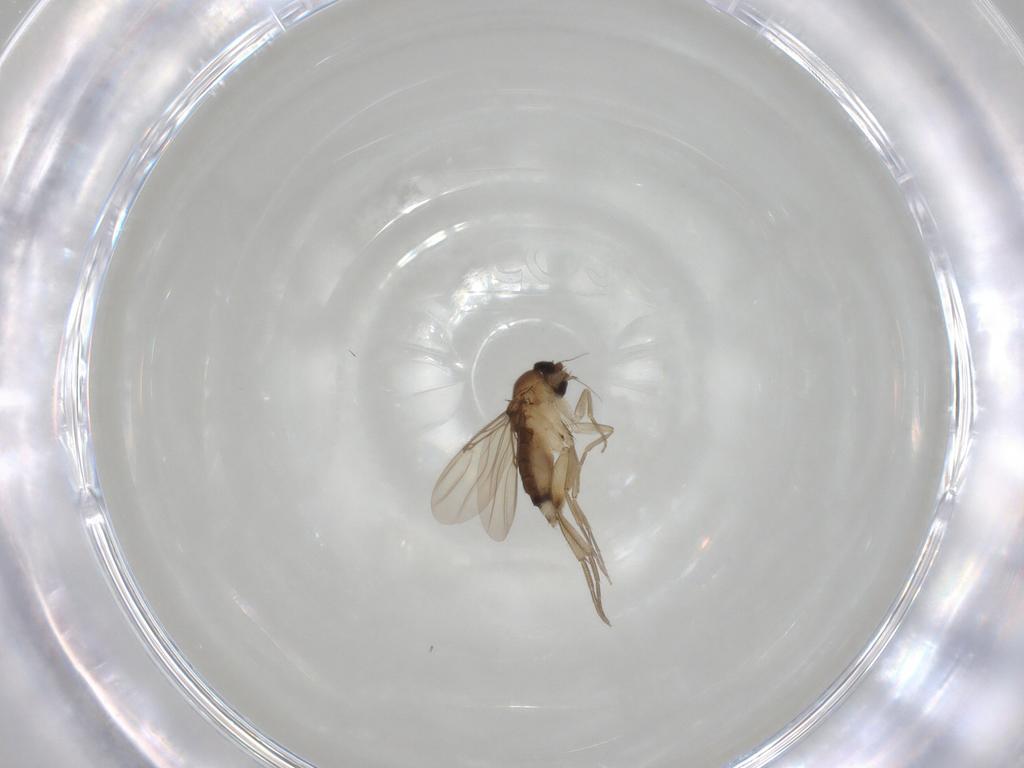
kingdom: Animalia
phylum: Arthropoda
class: Insecta
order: Diptera
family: Phoridae
